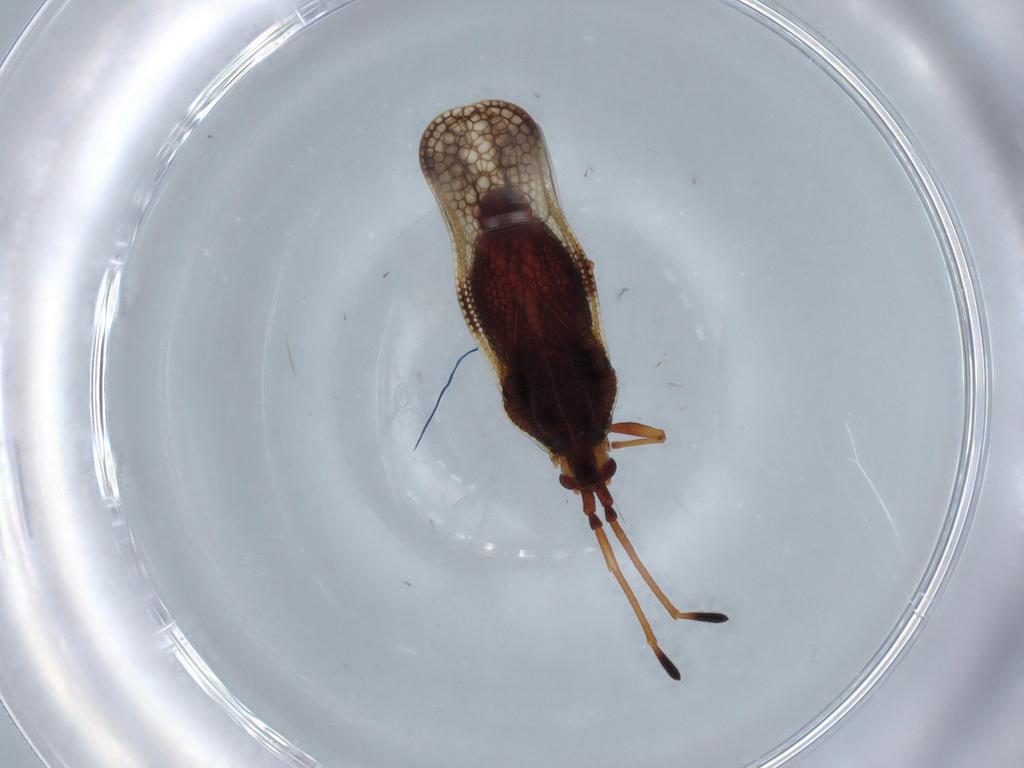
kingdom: Animalia
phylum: Arthropoda
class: Insecta
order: Hemiptera
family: Tingidae
